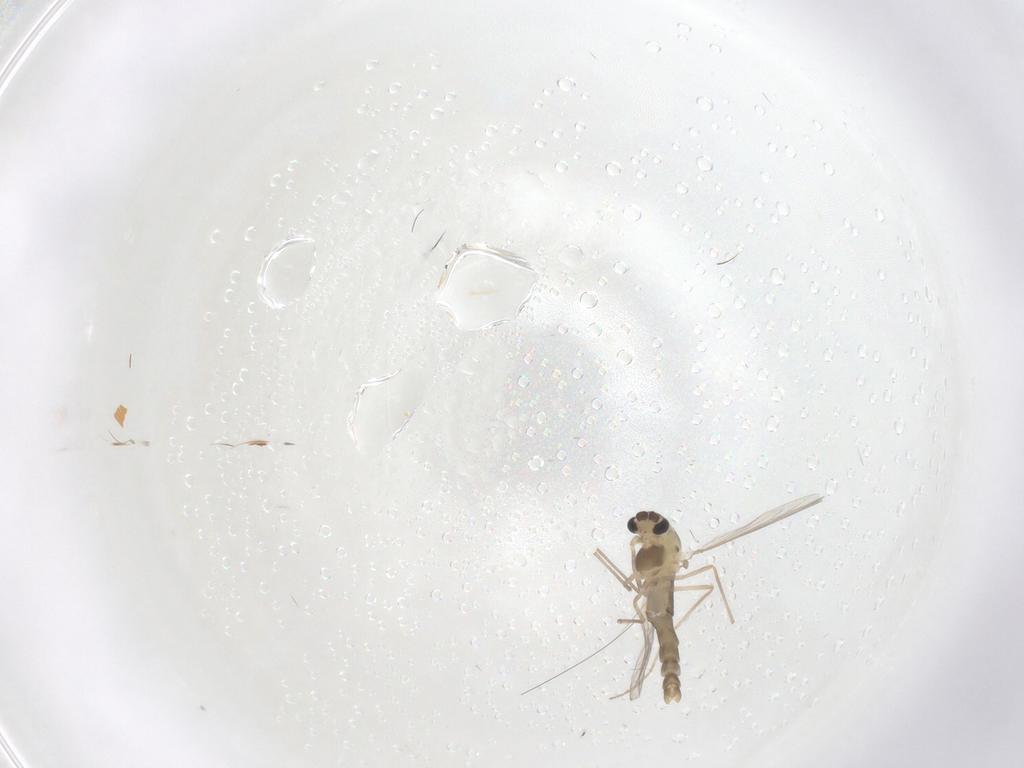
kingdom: Animalia
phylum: Arthropoda
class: Insecta
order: Diptera
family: Chironomidae
